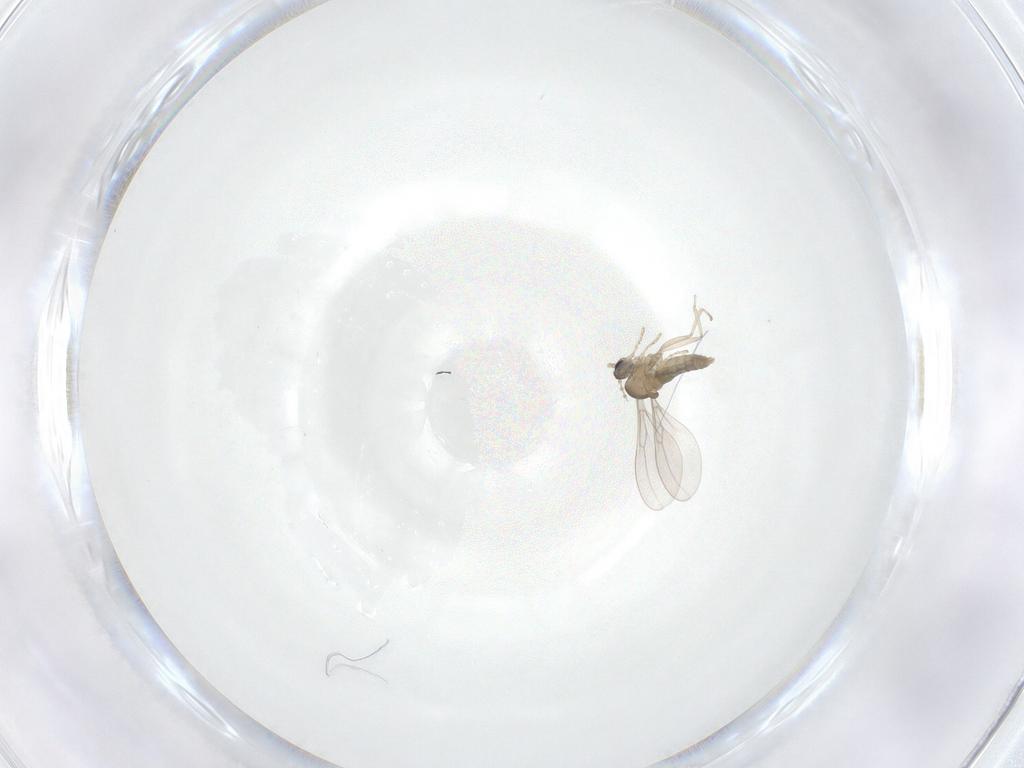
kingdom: Animalia
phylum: Arthropoda
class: Insecta
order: Diptera
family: Cecidomyiidae
